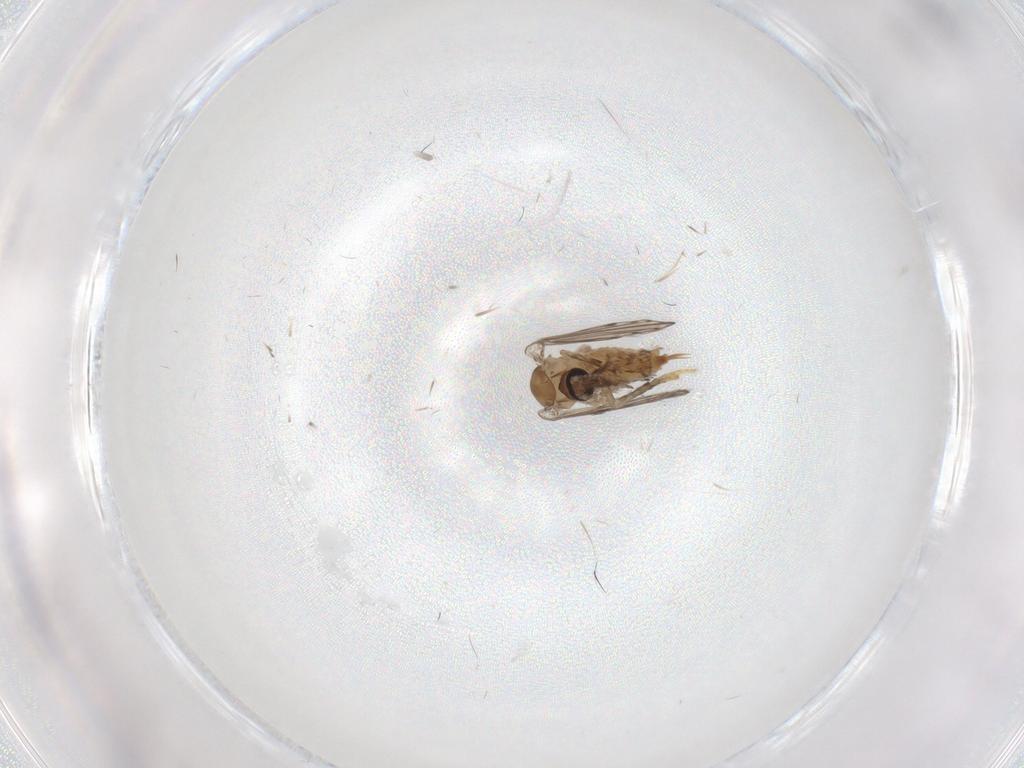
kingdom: Animalia
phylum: Arthropoda
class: Insecta
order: Diptera
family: Psychodidae
